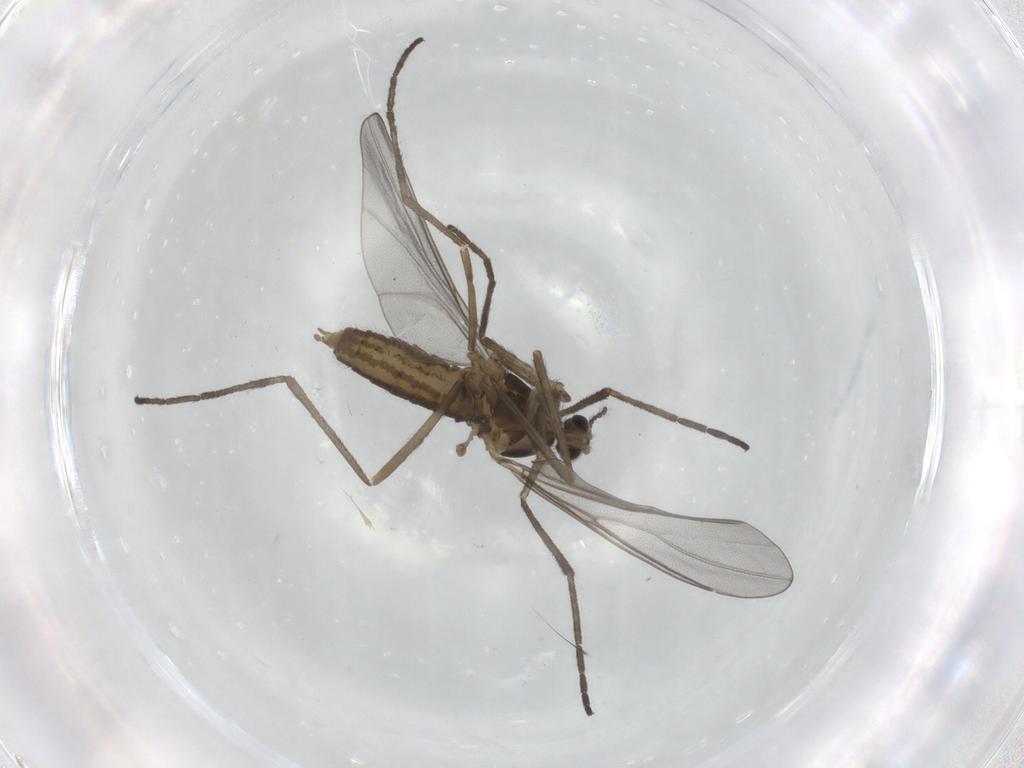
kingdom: Animalia
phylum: Arthropoda
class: Insecta
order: Diptera
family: Cecidomyiidae
